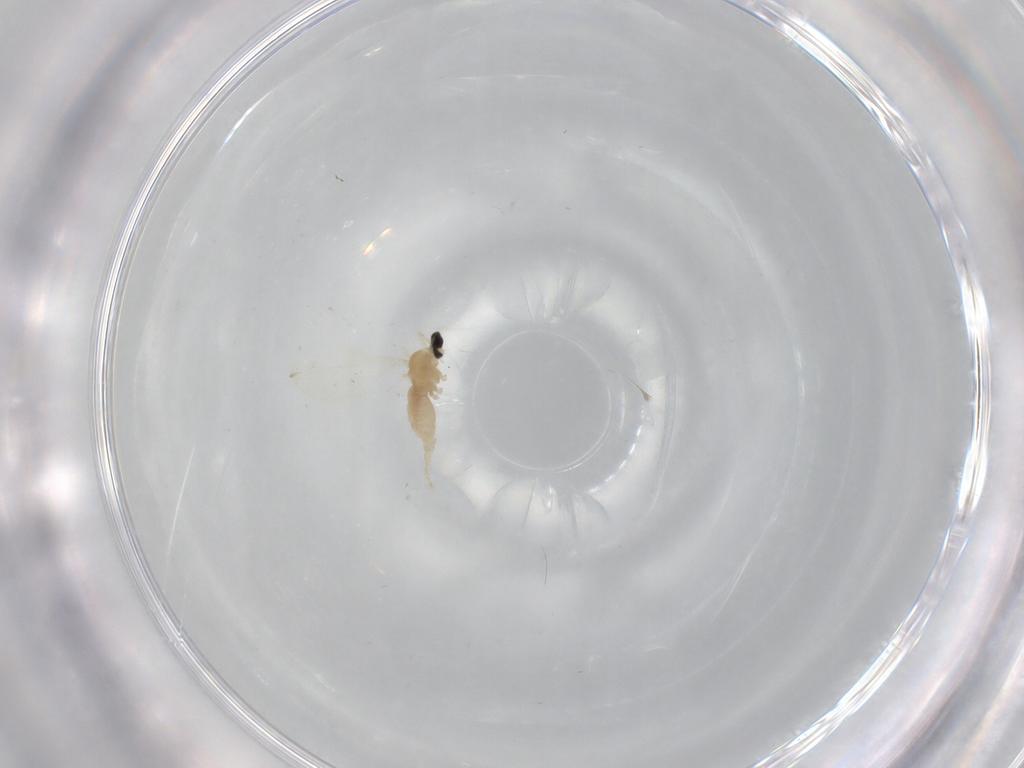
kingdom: Animalia
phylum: Arthropoda
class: Insecta
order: Diptera
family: Cecidomyiidae
